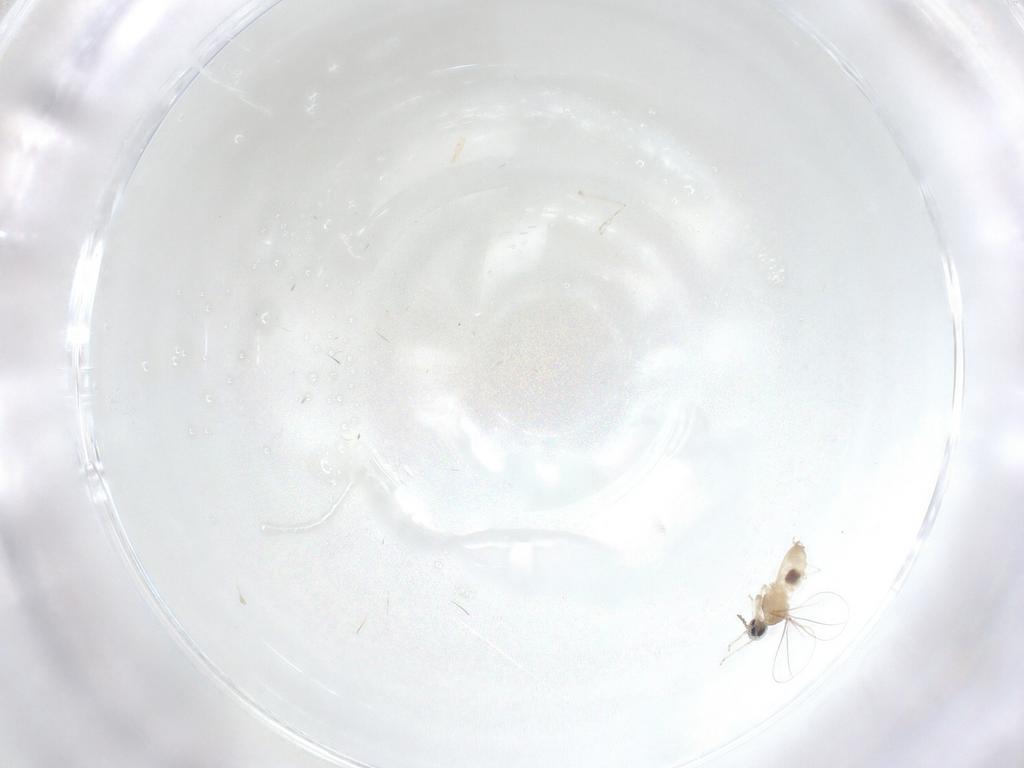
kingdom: Animalia
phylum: Arthropoda
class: Insecta
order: Diptera
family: Cecidomyiidae
